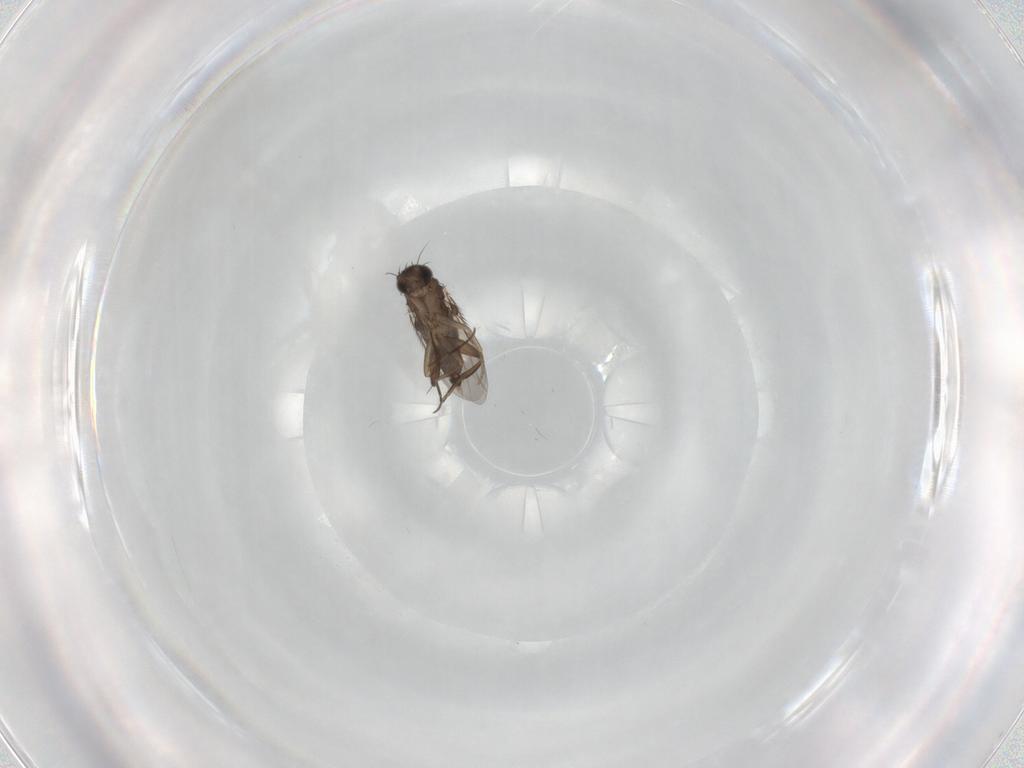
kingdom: Animalia
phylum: Arthropoda
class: Insecta
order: Diptera
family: Phoridae
